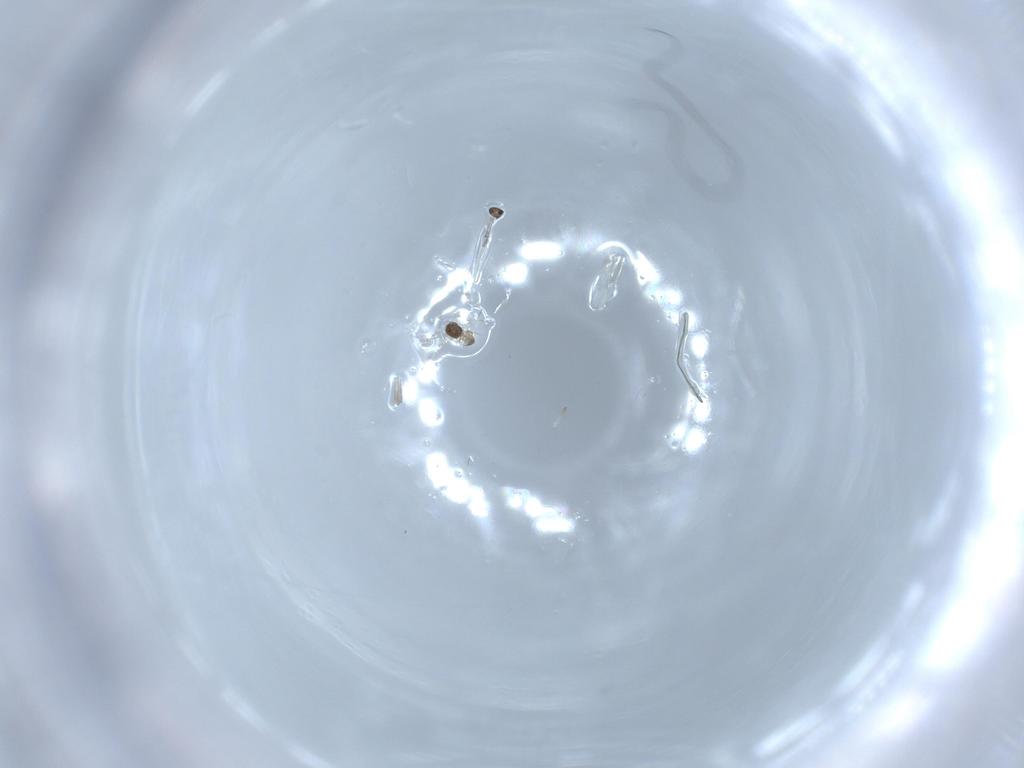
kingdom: Animalia
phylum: Arthropoda
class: Insecta
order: Hymenoptera
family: Mymaridae
